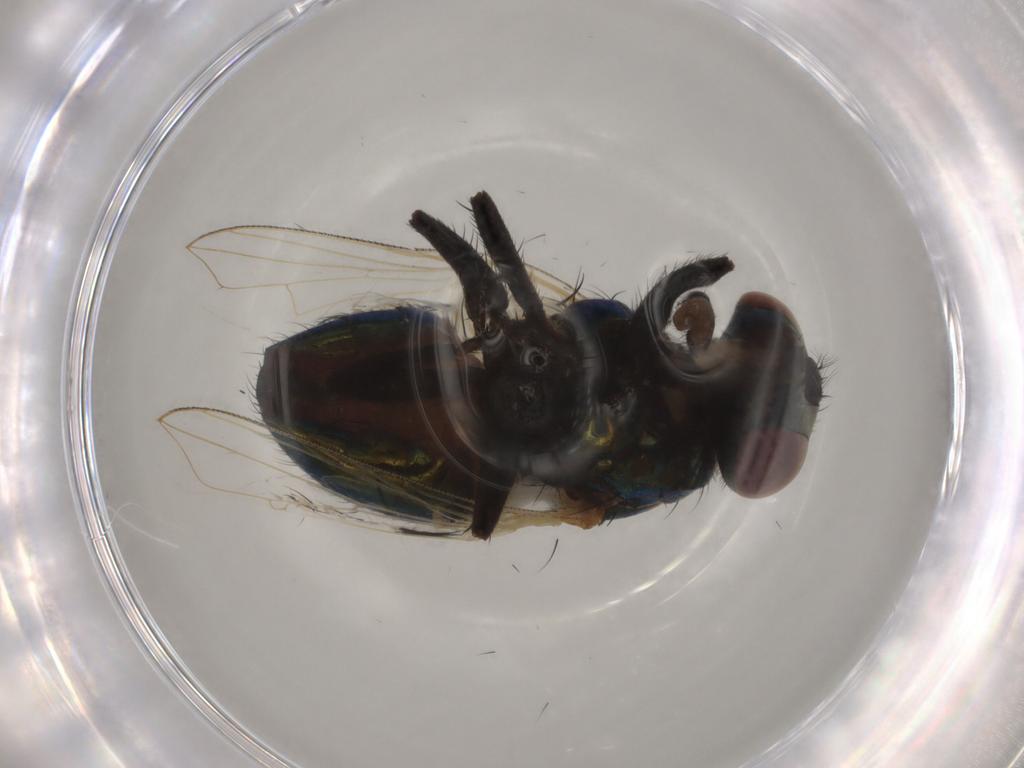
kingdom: Animalia
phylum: Arthropoda
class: Insecta
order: Diptera
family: Muscidae
